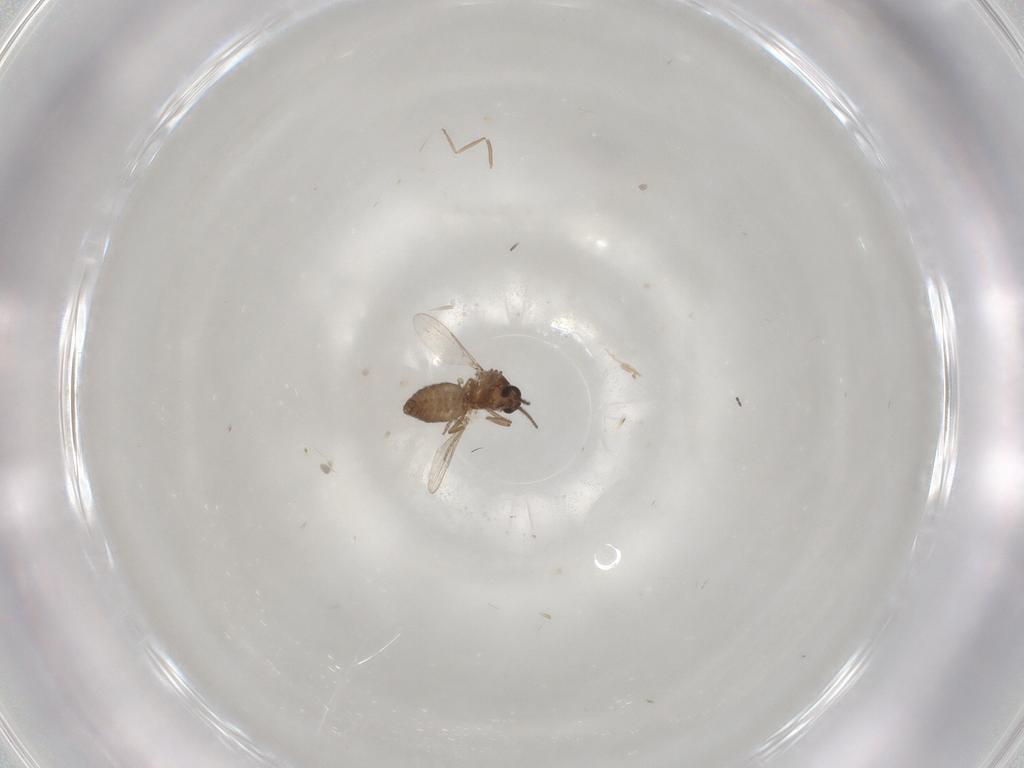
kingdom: Animalia
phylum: Arthropoda
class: Insecta
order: Diptera
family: Ceratopogonidae
